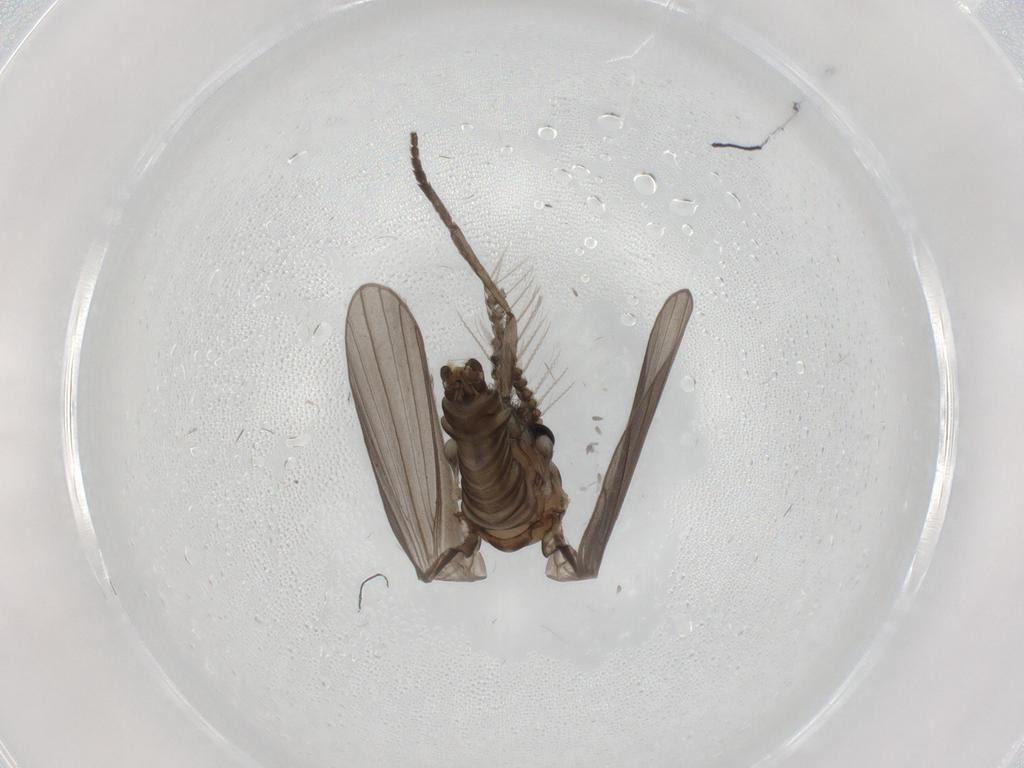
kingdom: Animalia
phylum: Arthropoda
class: Insecta
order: Diptera
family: Psychodidae
